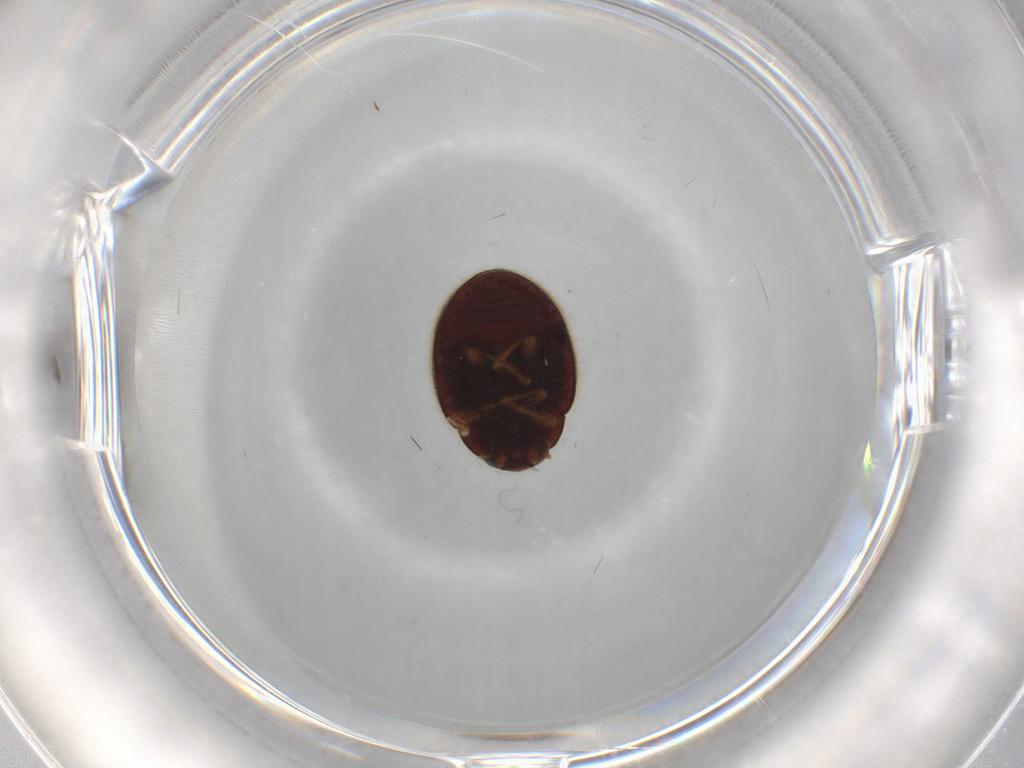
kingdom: Animalia
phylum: Arthropoda
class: Insecta
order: Coleoptera
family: Coccinellidae
